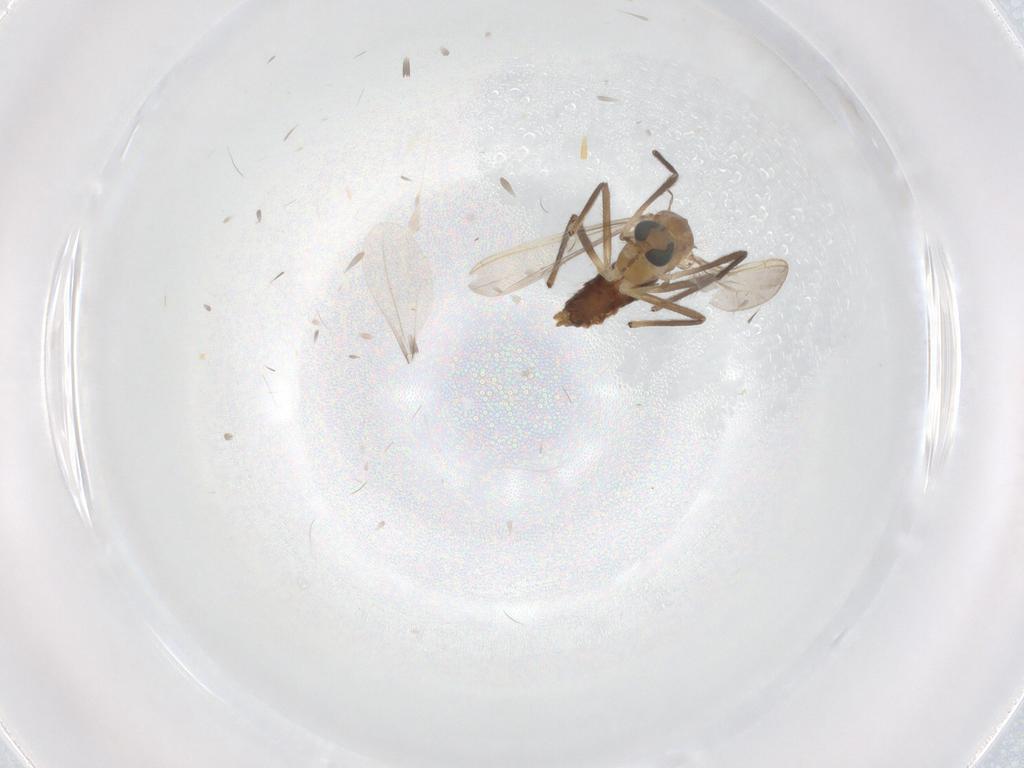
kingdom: Animalia
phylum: Arthropoda
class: Insecta
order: Diptera
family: Chironomidae
